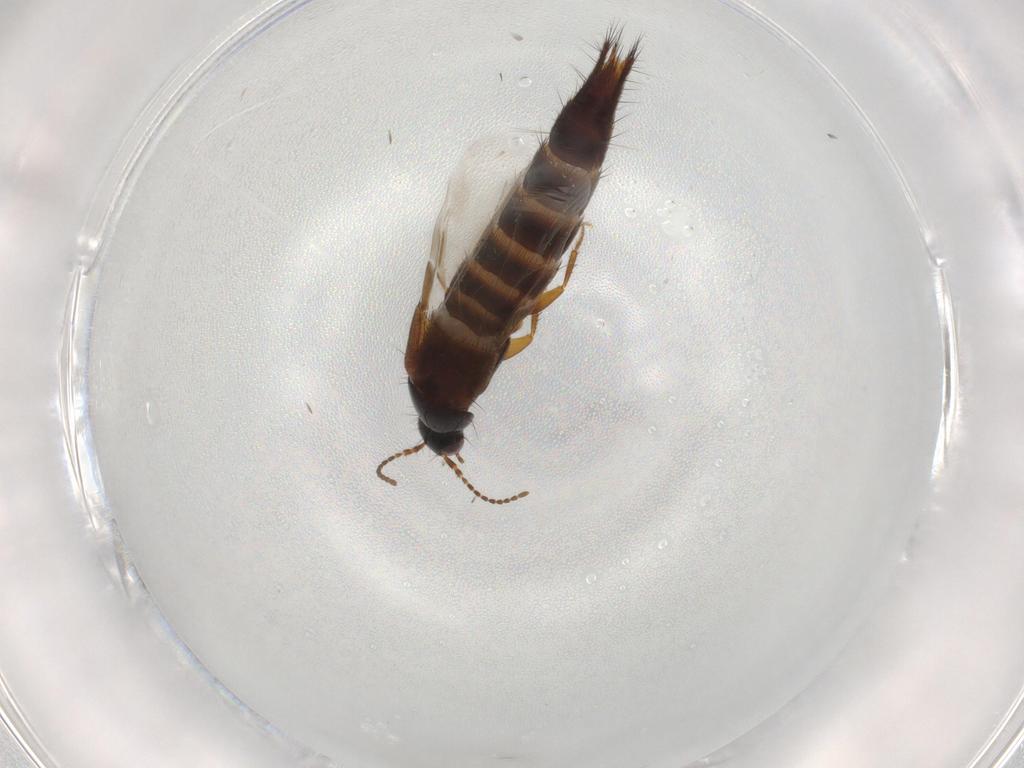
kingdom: Animalia
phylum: Arthropoda
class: Insecta
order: Coleoptera
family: Staphylinidae
